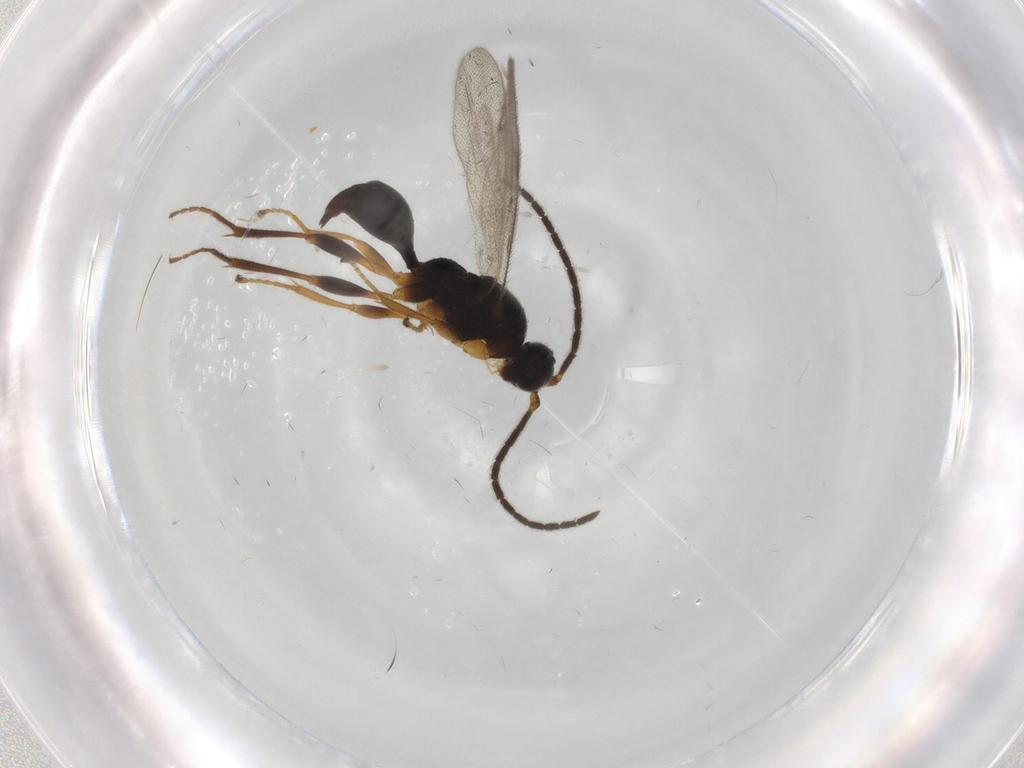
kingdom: Animalia
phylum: Arthropoda
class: Insecta
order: Hymenoptera
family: Proctotrupidae
